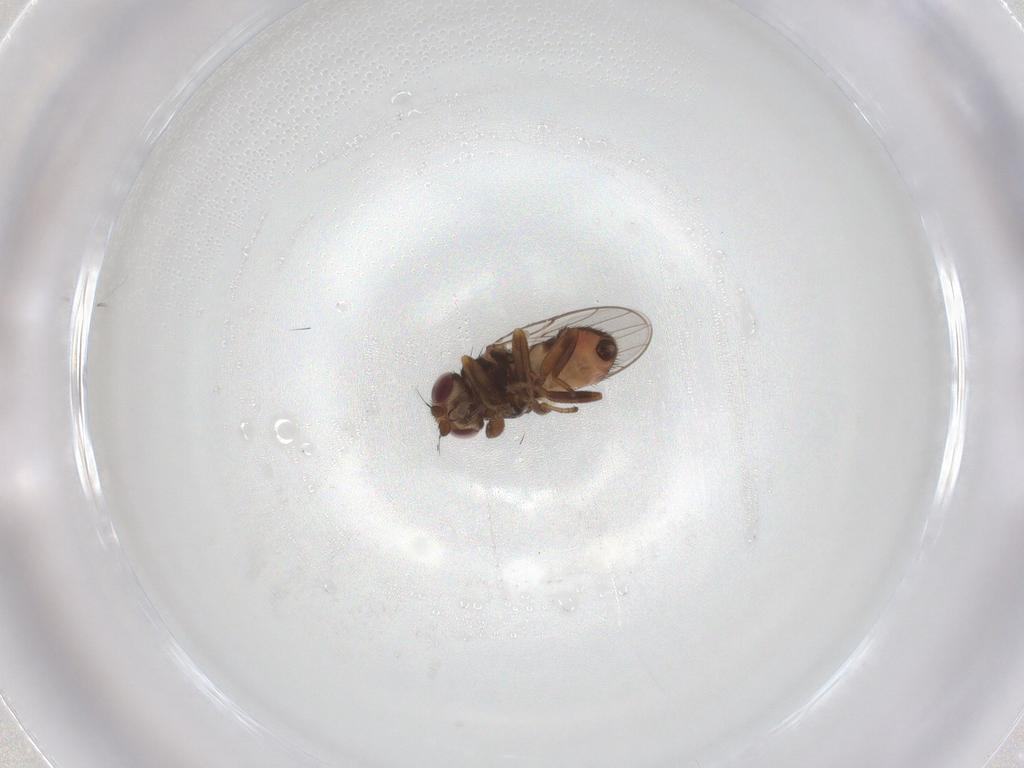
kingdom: Animalia
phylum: Arthropoda
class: Insecta
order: Diptera
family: Chloropidae
